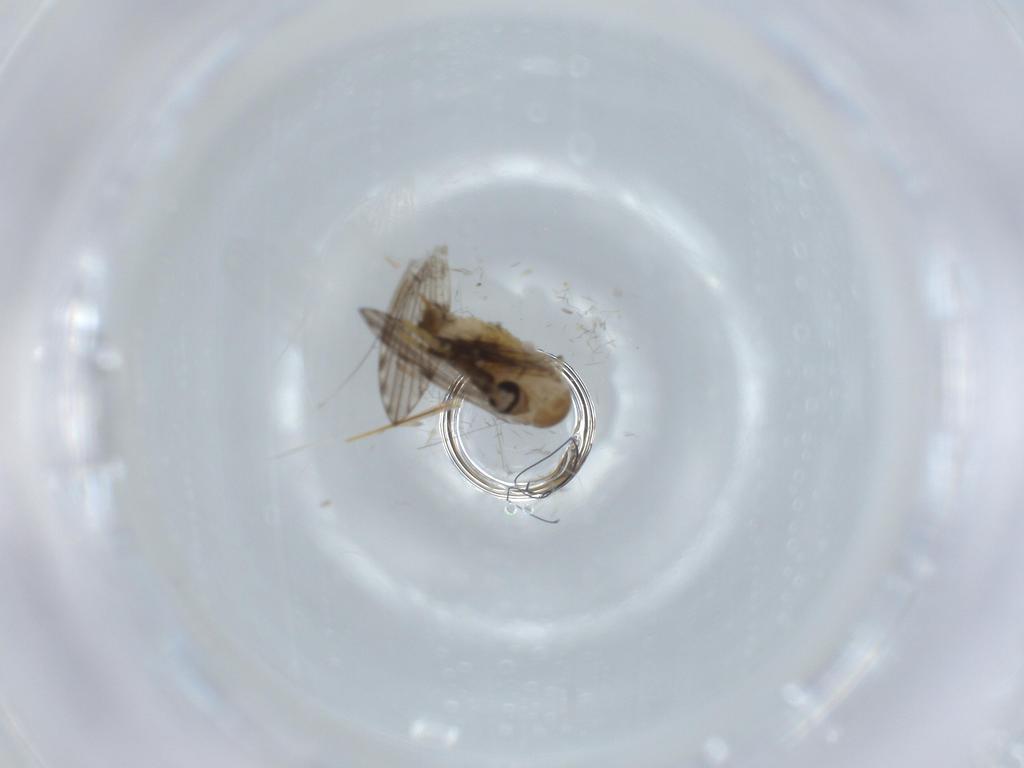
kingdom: Animalia
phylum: Arthropoda
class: Insecta
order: Diptera
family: Psychodidae
